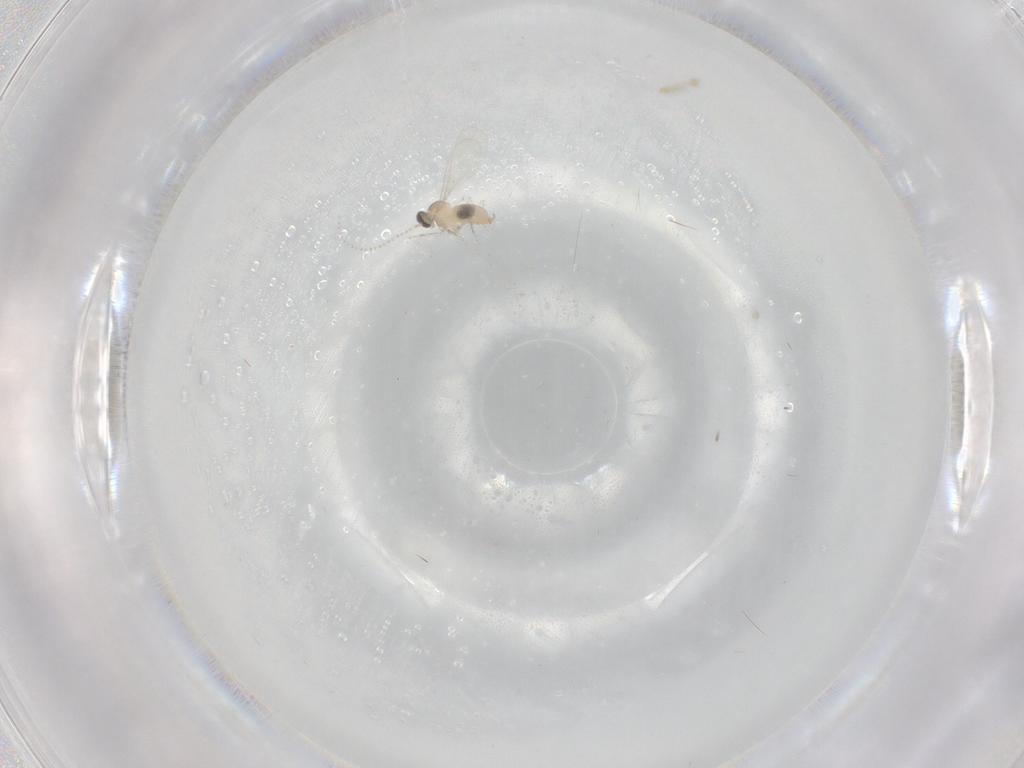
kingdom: Animalia
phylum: Arthropoda
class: Insecta
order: Diptera
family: Cecidomyiidae
